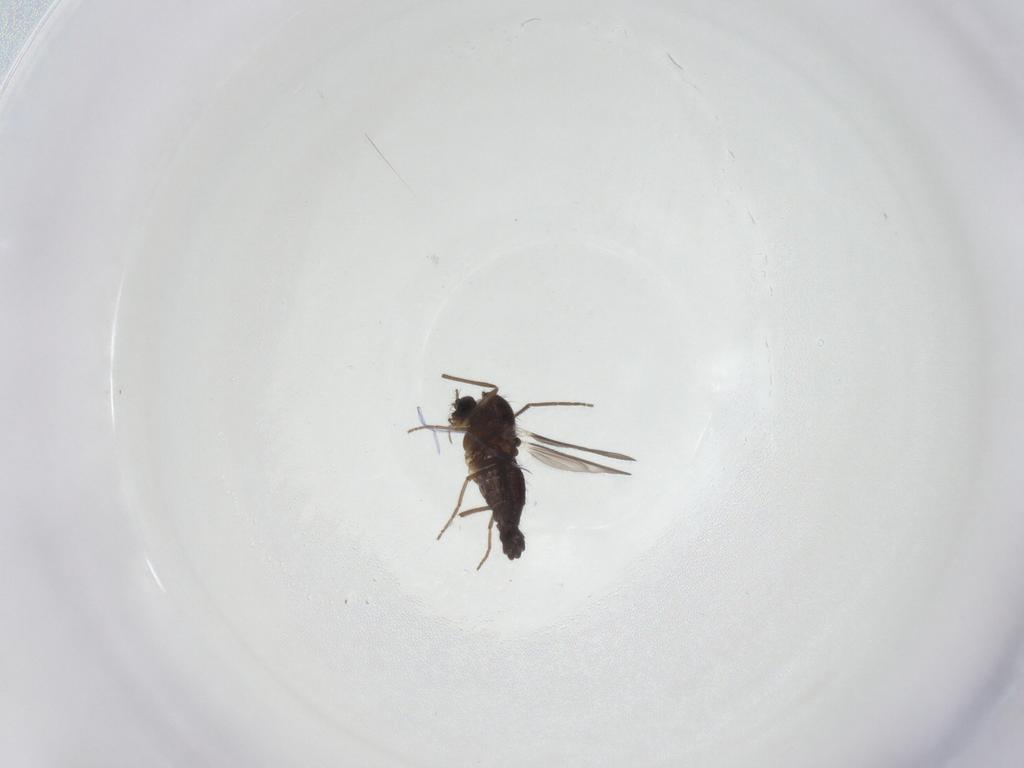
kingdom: Animalia
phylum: Arthropoda
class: Insecta
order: Diptera
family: Chironomidae
